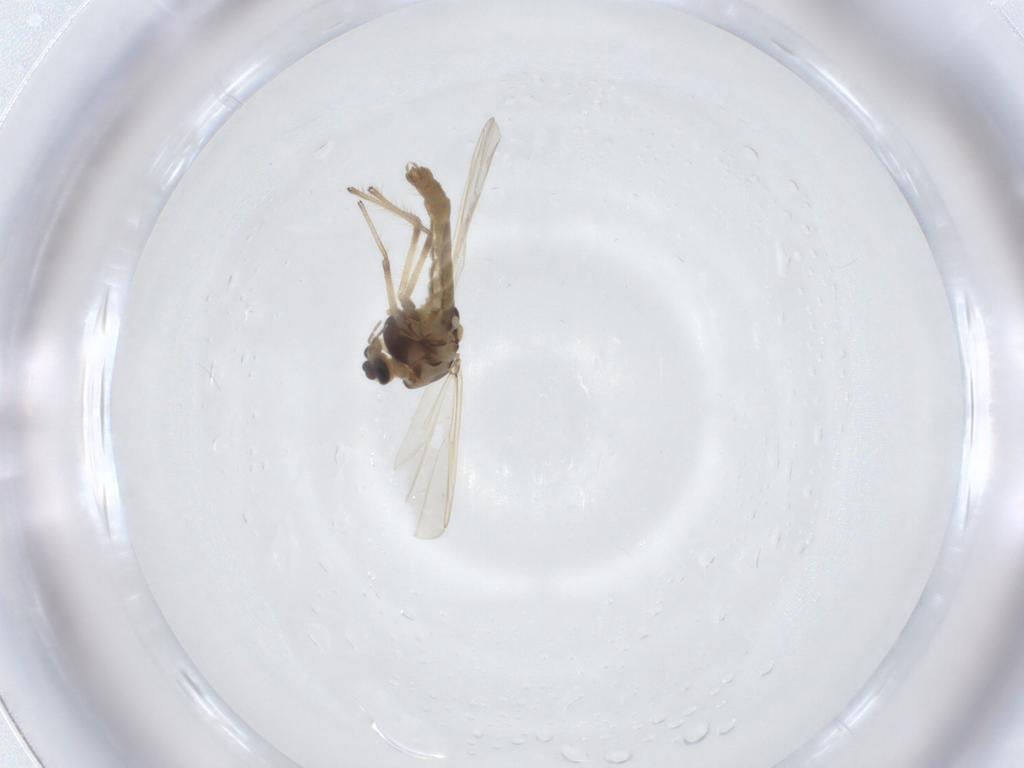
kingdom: Animalia
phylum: Arthropoda
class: Insecta
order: Diptera
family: Chironomidae
